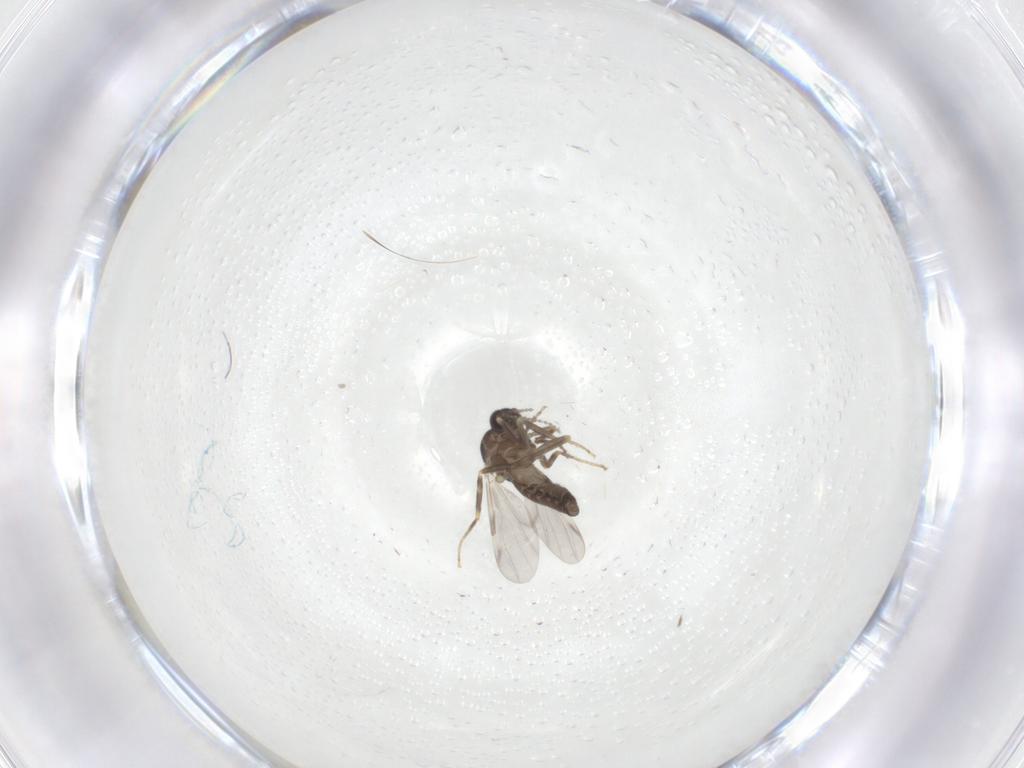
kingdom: Animalia
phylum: Arthropoda
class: Insecta
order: Diptera
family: Ceratopogonidae
